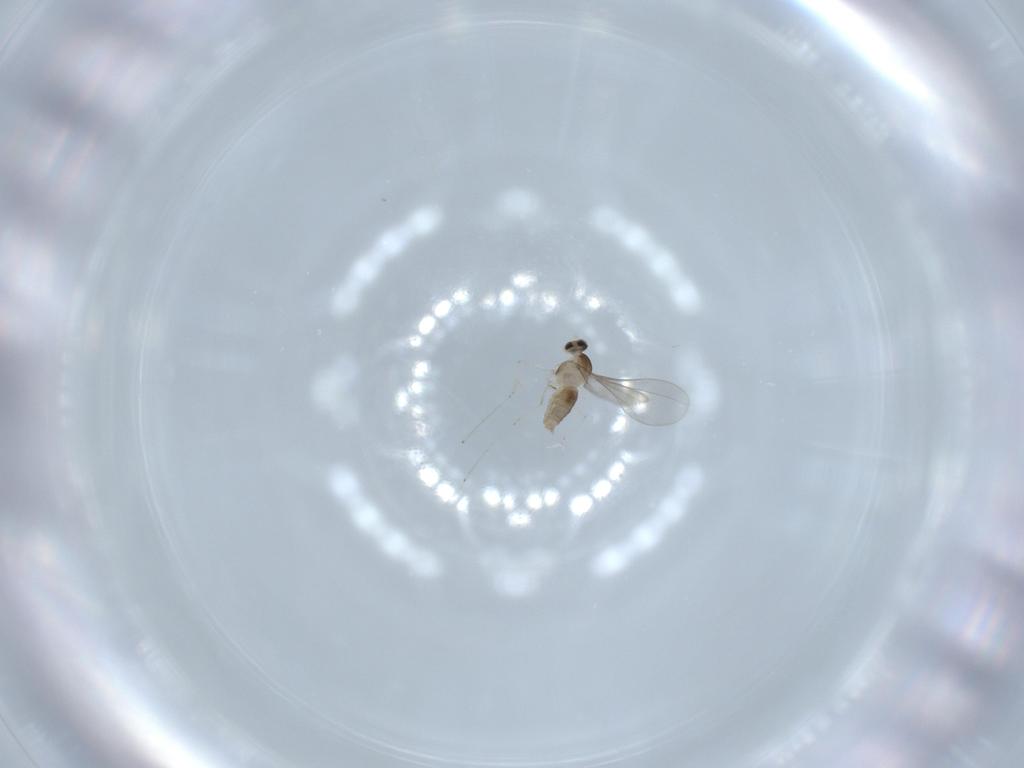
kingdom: Animalia
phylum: Arthropoda
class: Insecta
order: Diptera
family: Cecidomyiidae
